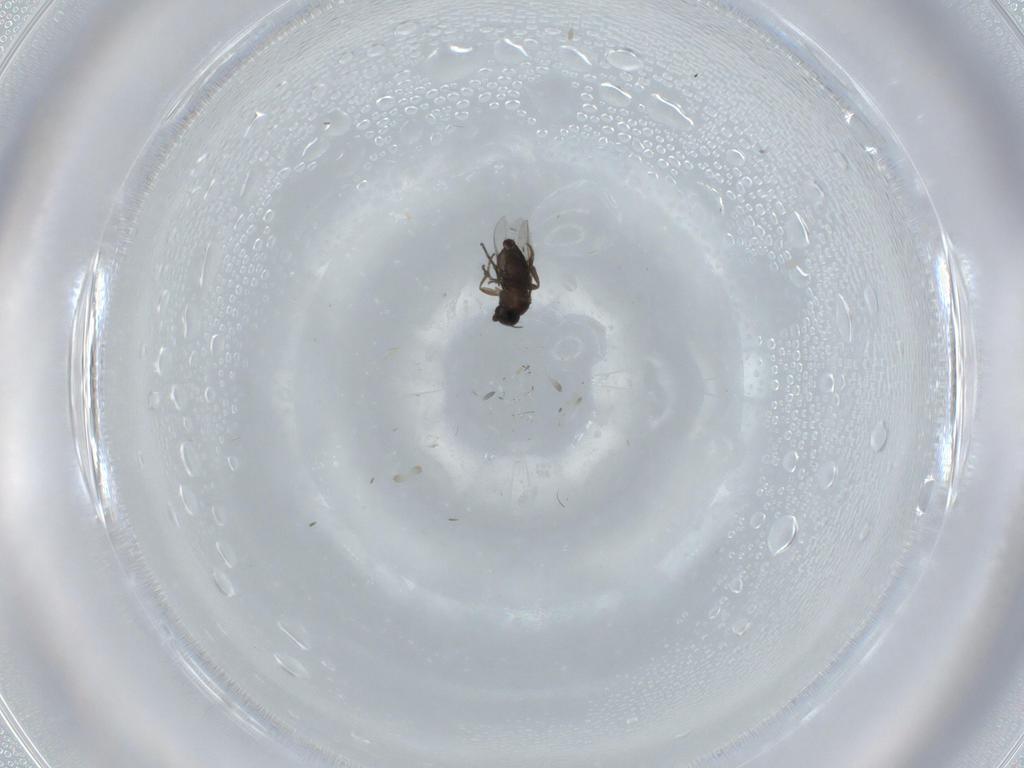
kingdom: Animalia
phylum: Arthropoda
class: Insecta
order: Diptera
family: Phoridae
